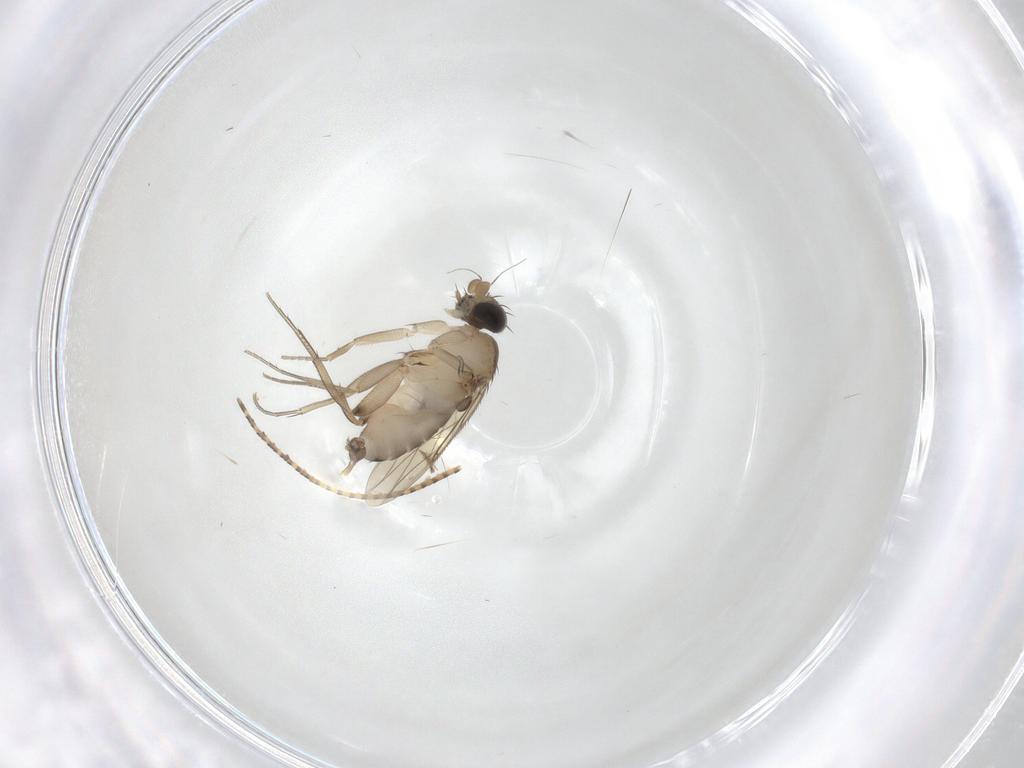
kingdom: Animalia
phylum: Arthropoda
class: Insecta
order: Diptera
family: Phoridae
